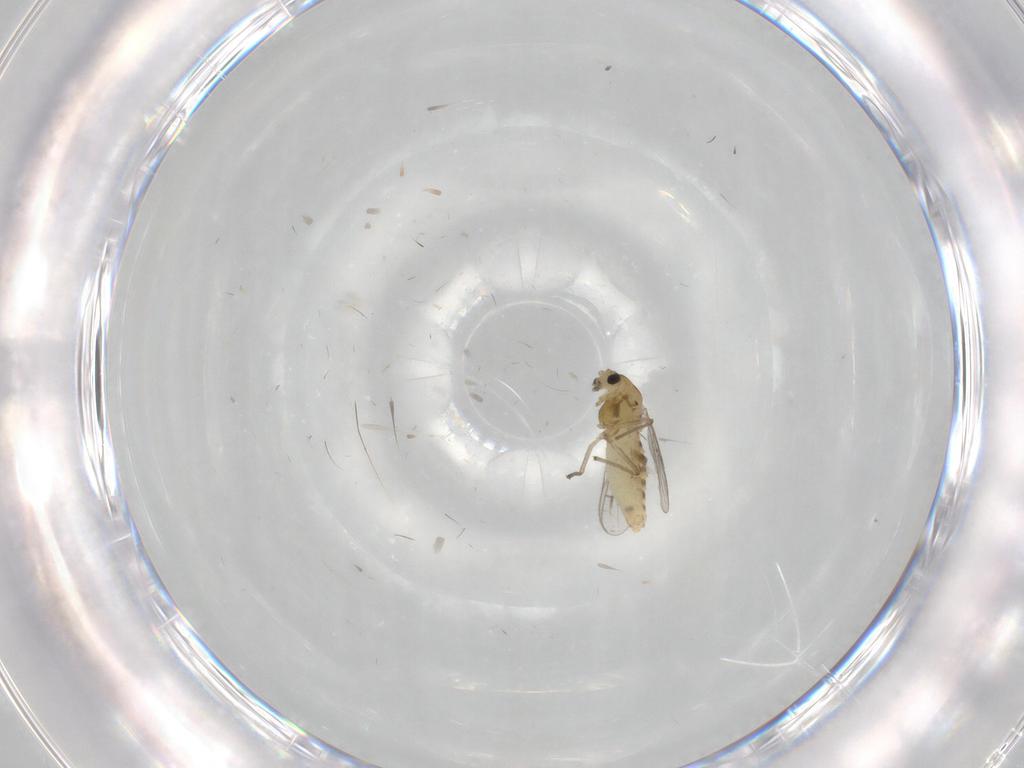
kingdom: Animalia
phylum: Arthropoda
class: Insecta
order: Diptera
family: Chironomidae
